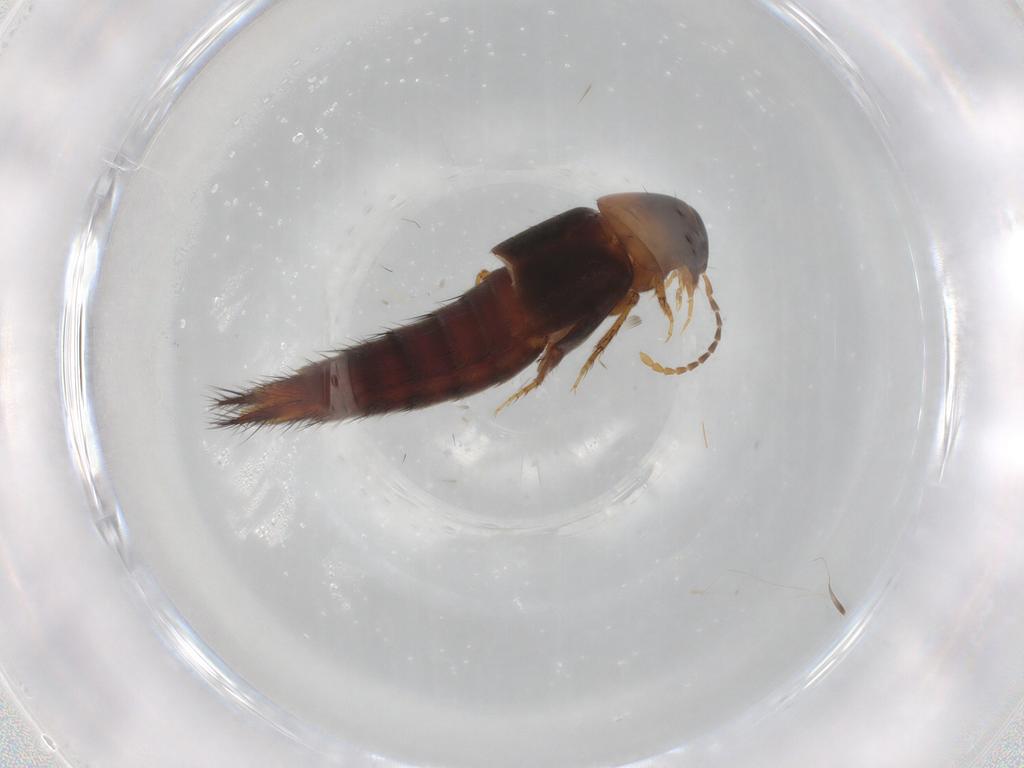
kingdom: Animalia
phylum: Arthropoda
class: Insecta
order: Coleoptera
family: Staphylinidae
